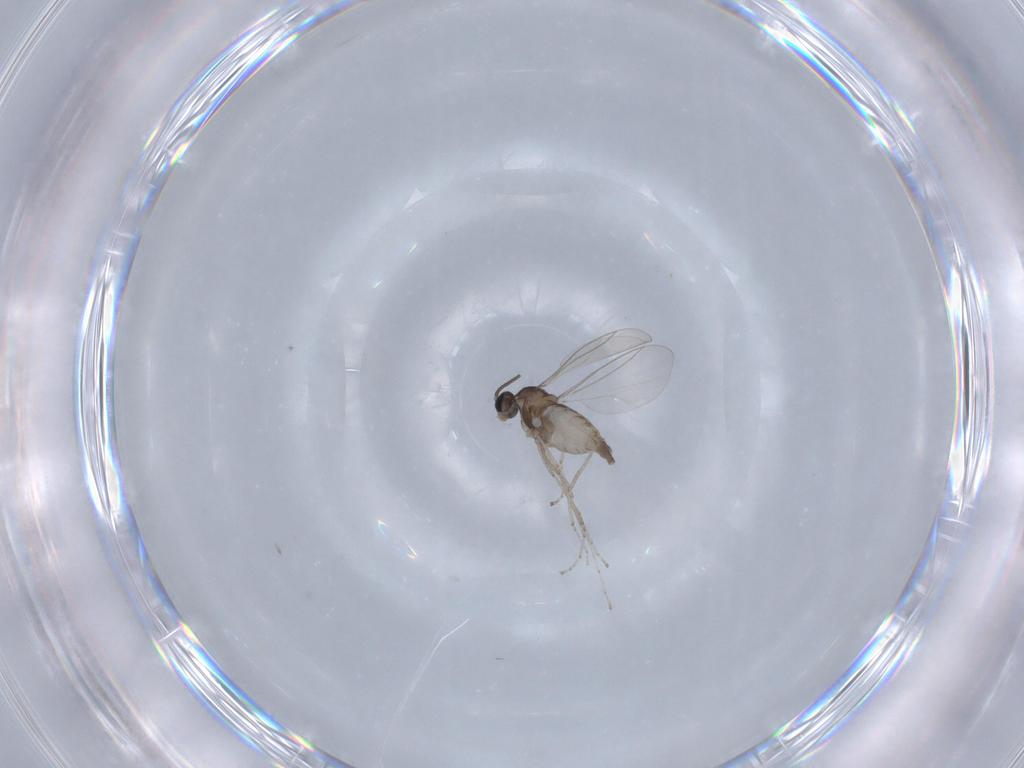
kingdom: Animalia
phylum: Arthropoda
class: Insecta
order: Diptera
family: Cecidomyiidae
